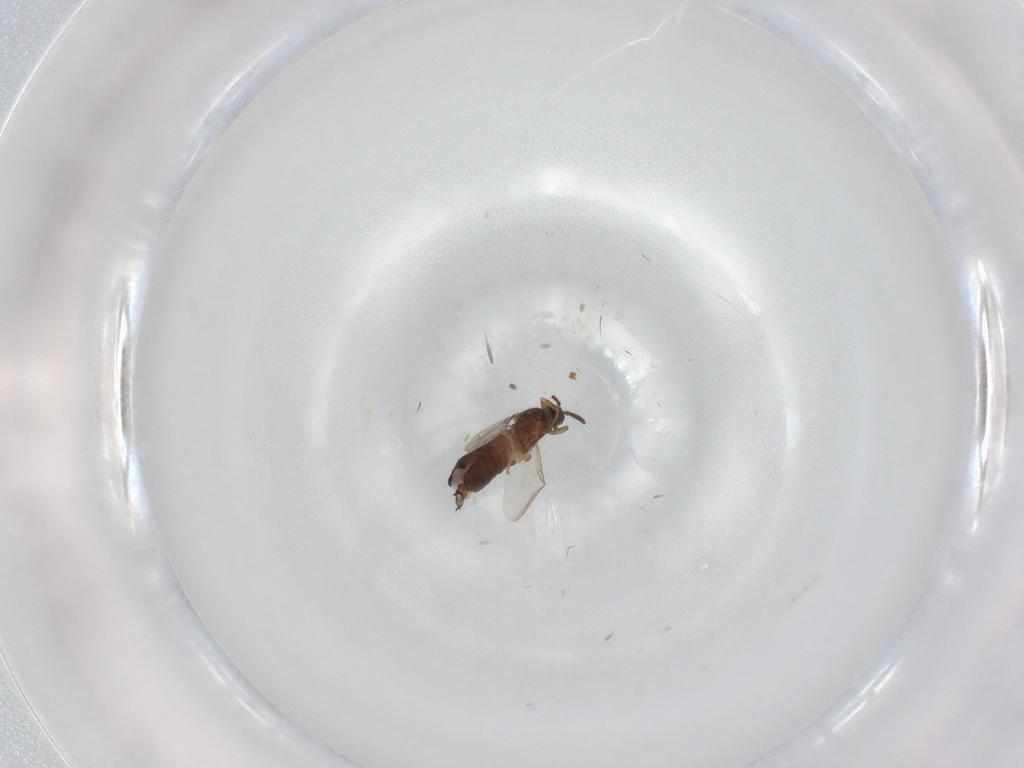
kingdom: Animalia
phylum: Arthropoda
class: Insecta
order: Diptera
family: Scatopsidae
